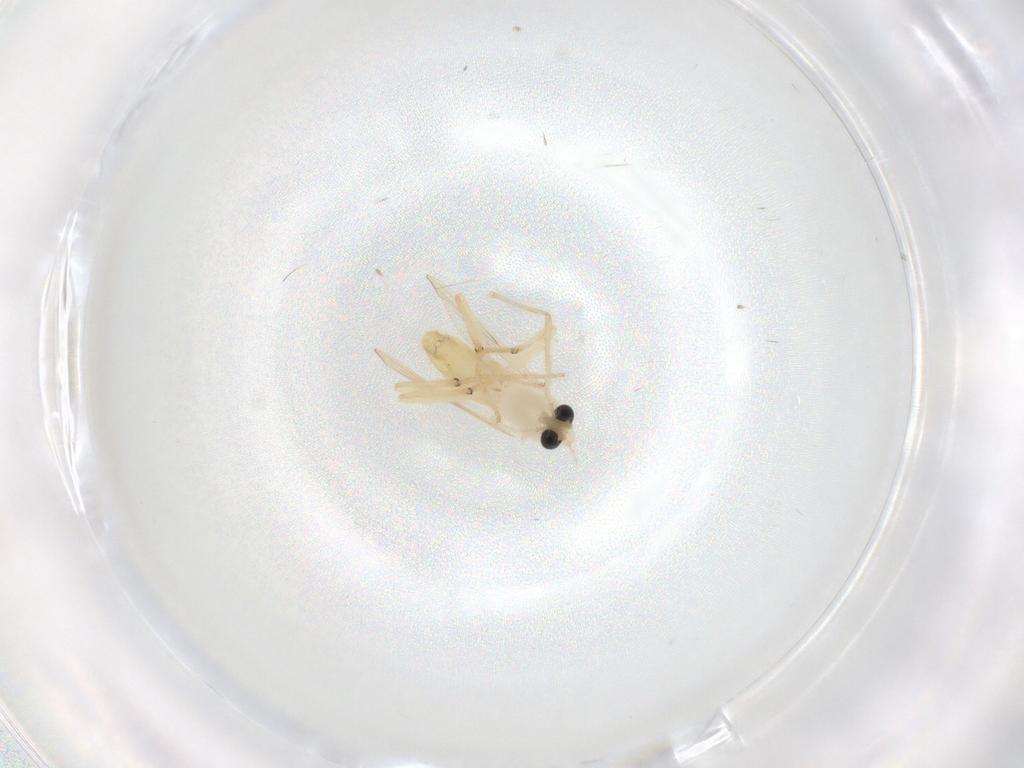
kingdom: Animalia
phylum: Arthropoda
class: Insecta
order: Diptera
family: Chironomidae
